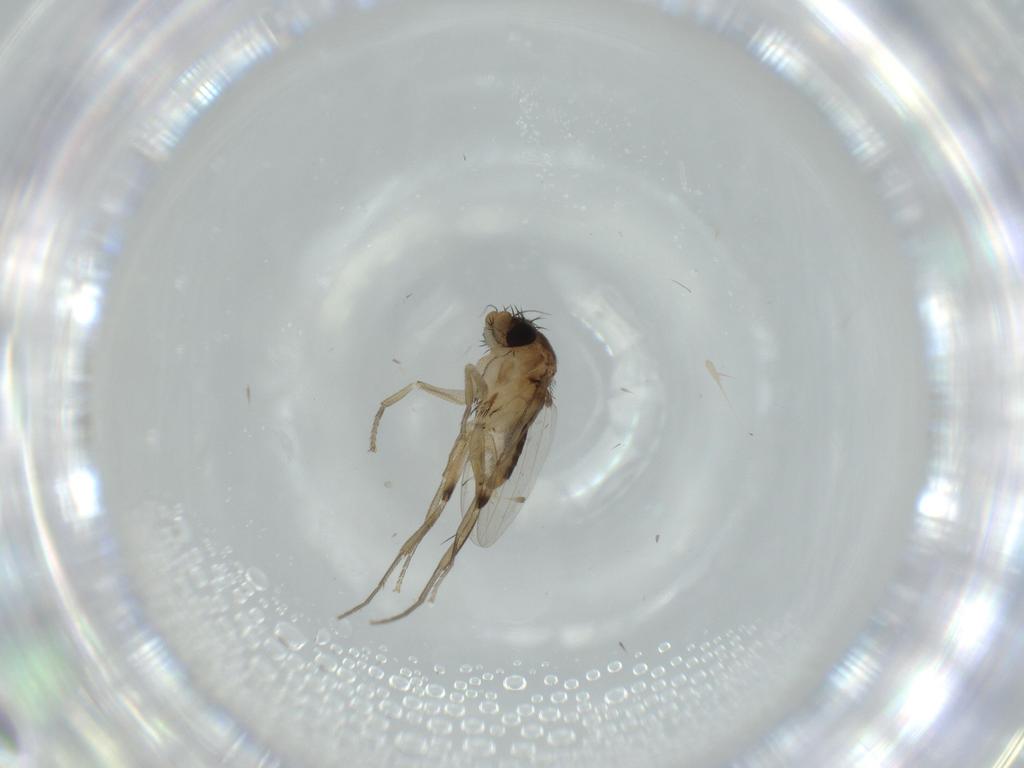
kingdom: Animalia
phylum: Arthropoda
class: Insecta
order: Diptera
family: Phoridae
